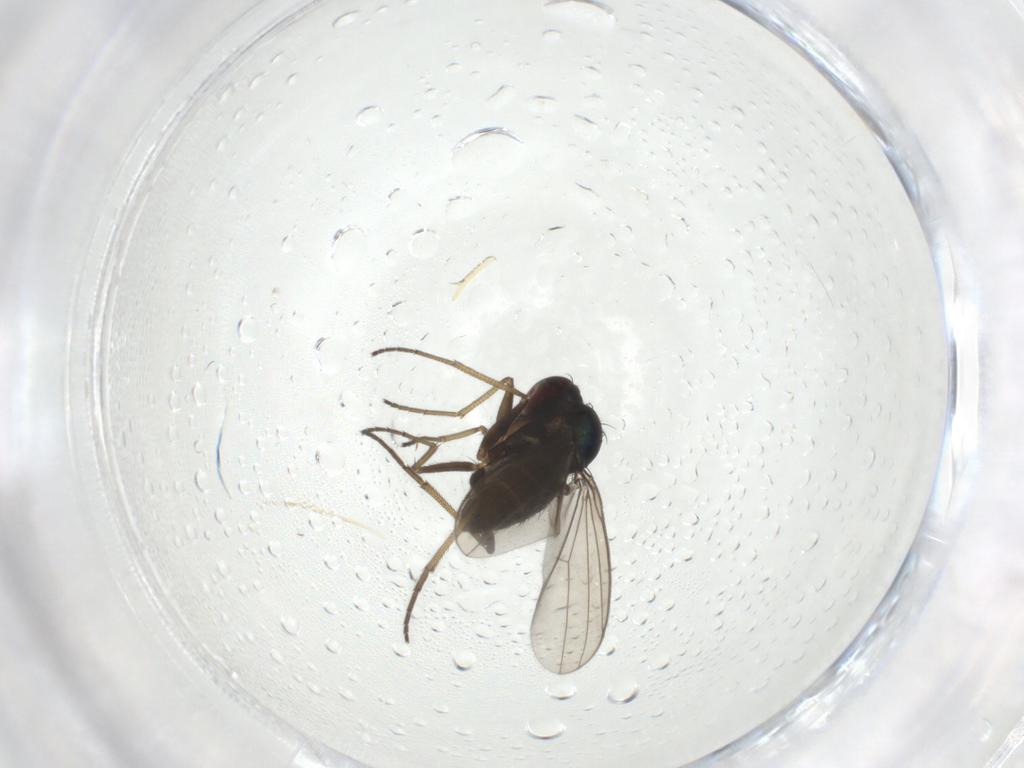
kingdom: Animalia
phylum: Arthropoda
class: Insecta
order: Diptera
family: Dolichopodidae
